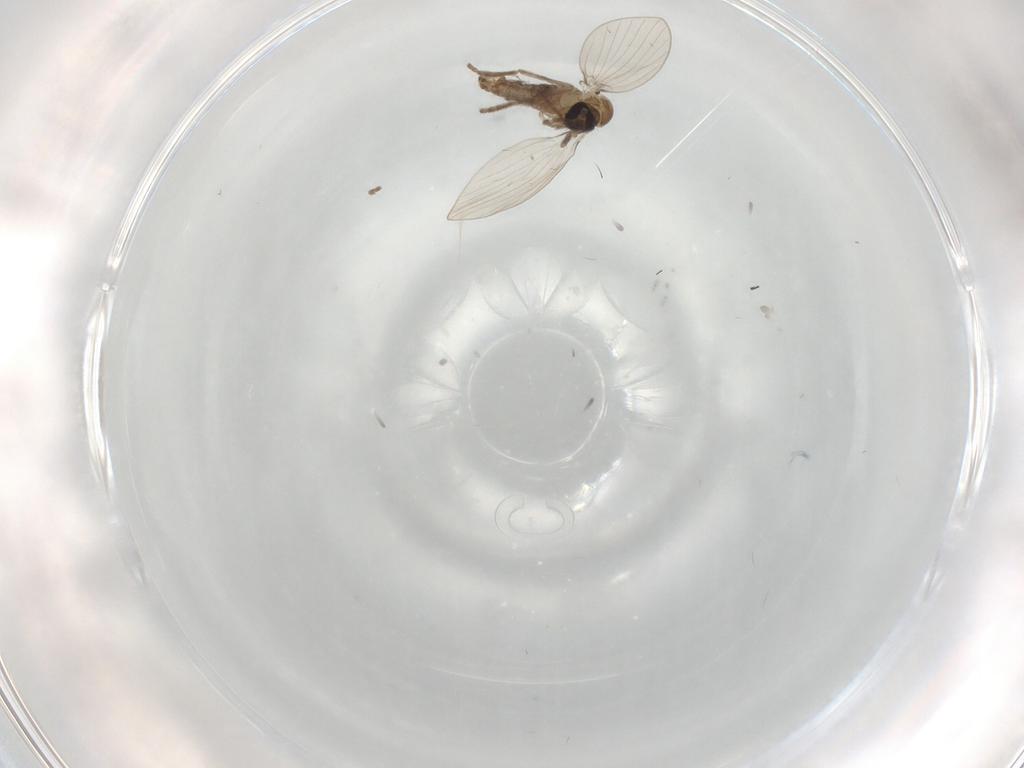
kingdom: Animalia
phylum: Arthropoda
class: Insecta
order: Diptera
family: Drosophilidae
